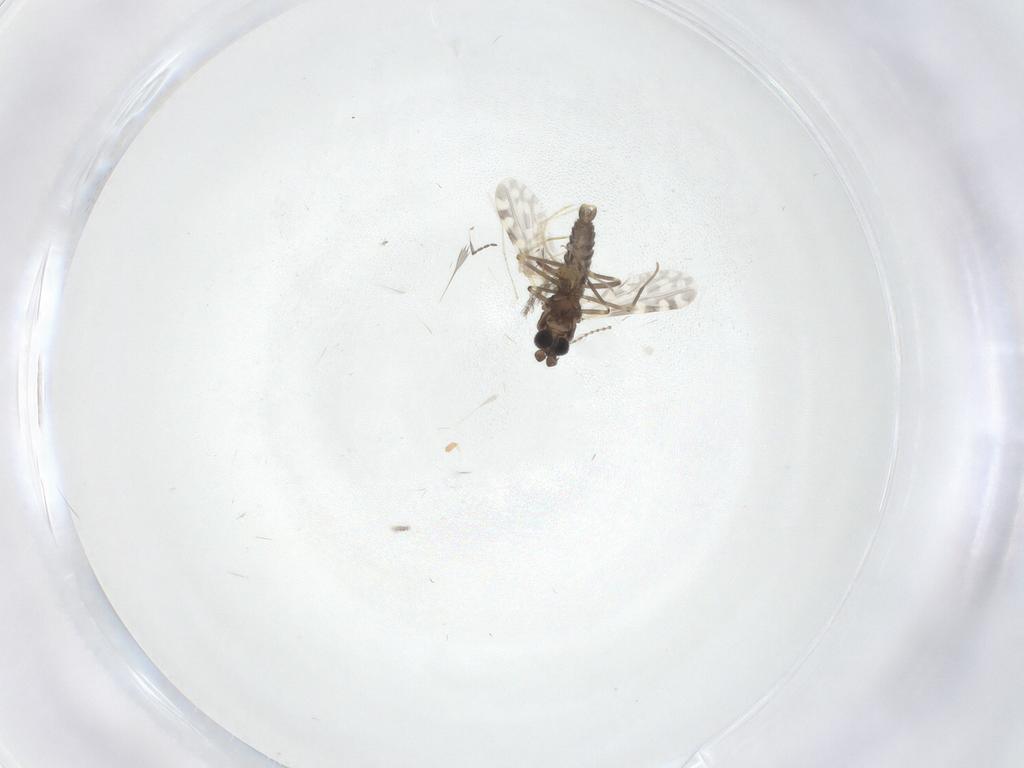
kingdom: Animalia
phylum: Arthropoda
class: Insecta
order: Diptera
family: Ceratopogonidae
